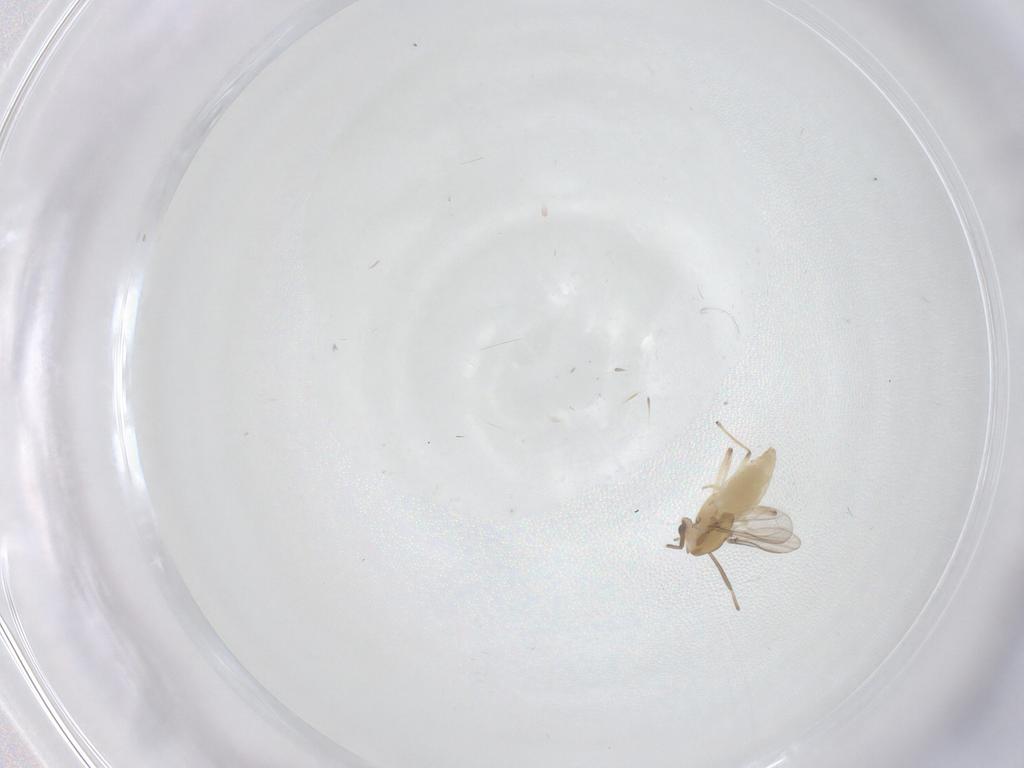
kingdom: Animalia
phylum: Arthropoda
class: Insecta
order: Diptera
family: Chironomidae
